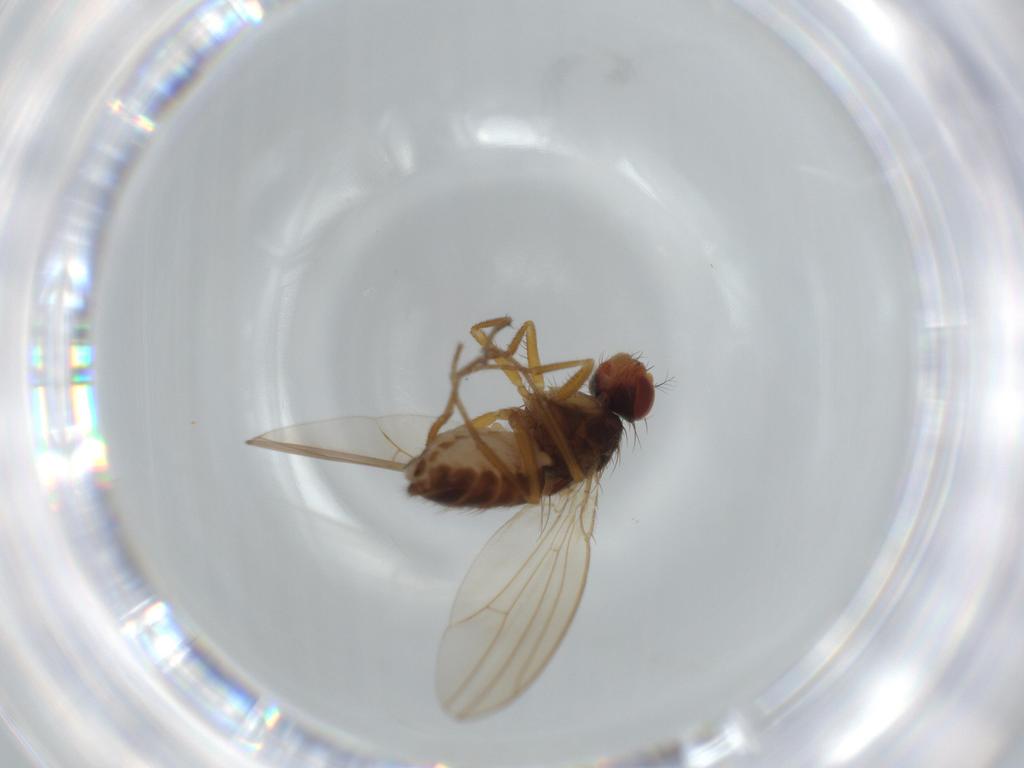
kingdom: Animalia
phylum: Arthropoda
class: Insecta
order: Diptera
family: Drosophilidae
